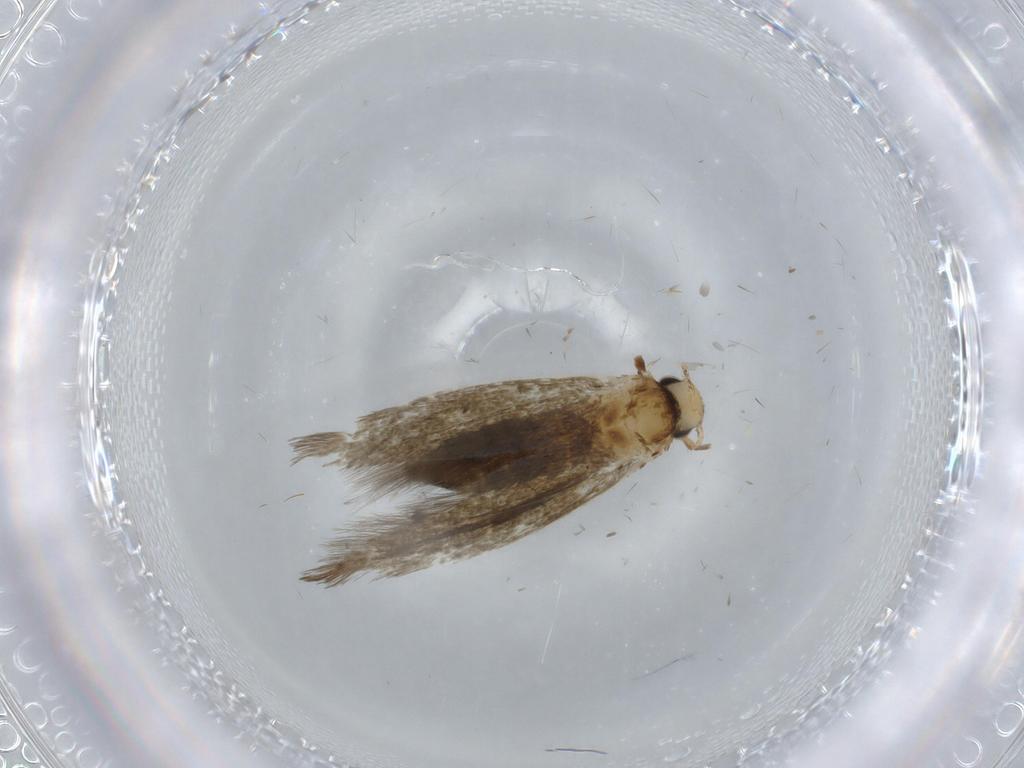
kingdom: Animalia
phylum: Arthropoda
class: Insecta
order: Lepidoptera
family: Tineidae
